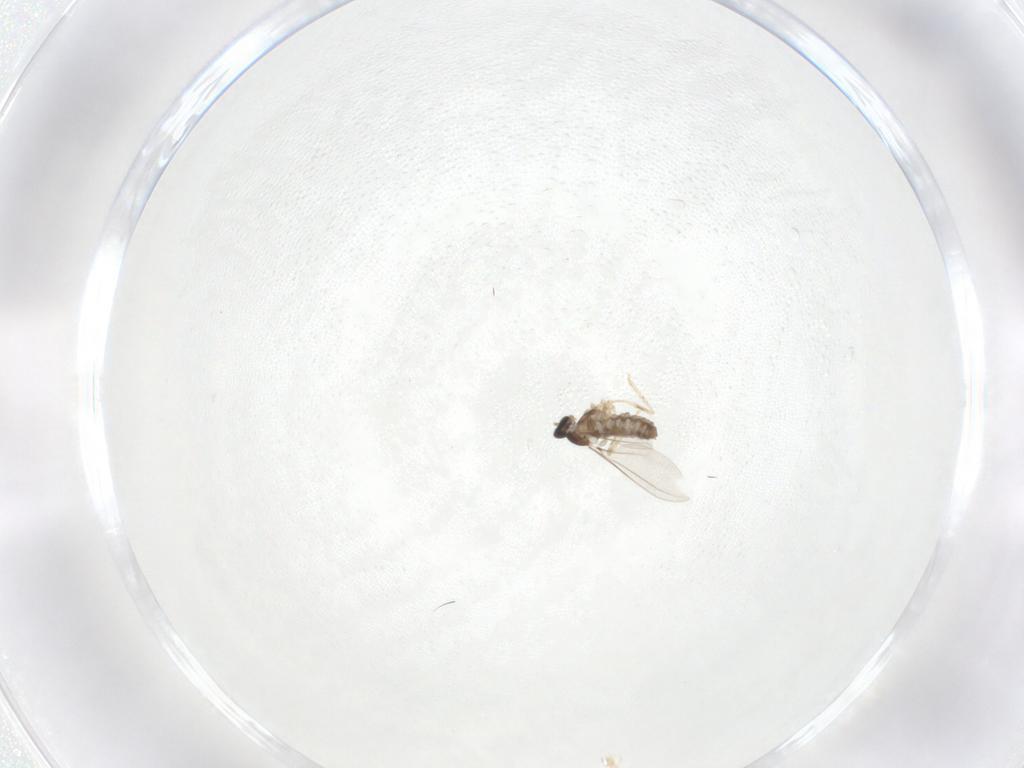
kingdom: Animalia
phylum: Arthropoda
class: Insecta
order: Diptera
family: Cecidomyiidae
